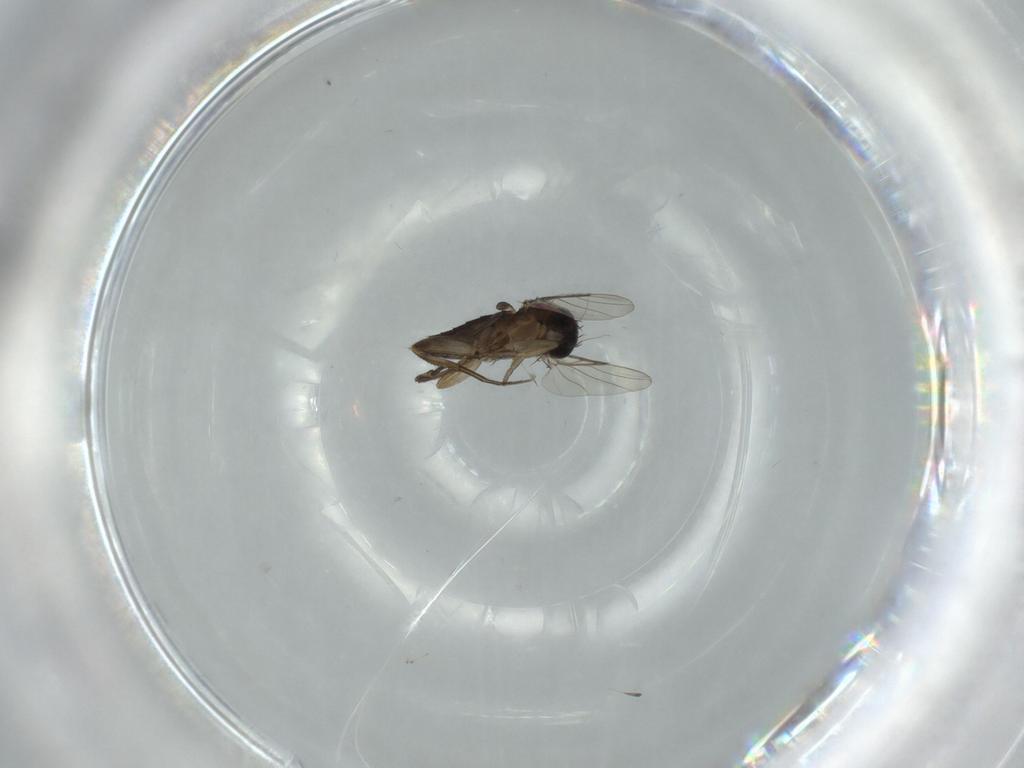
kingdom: Animalia
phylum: Arthropoda
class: Insecta
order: Diptera
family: Phoridae
